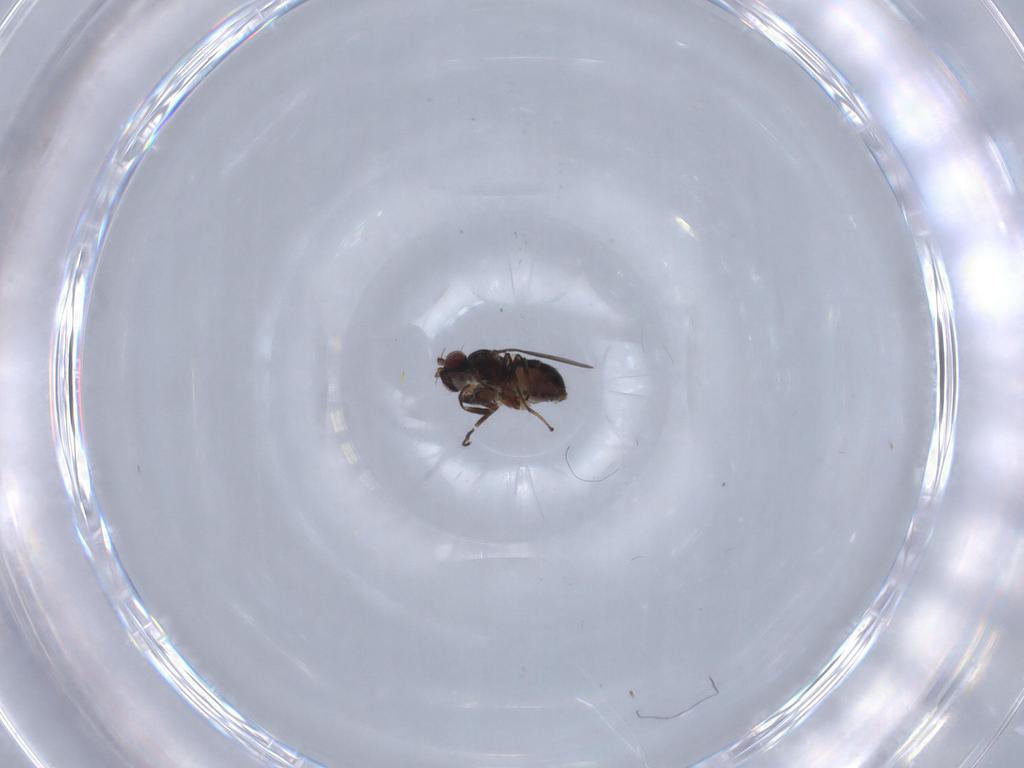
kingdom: Animalia
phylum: Arthropoda
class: Insecta
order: Diptera
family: Ephydridae
